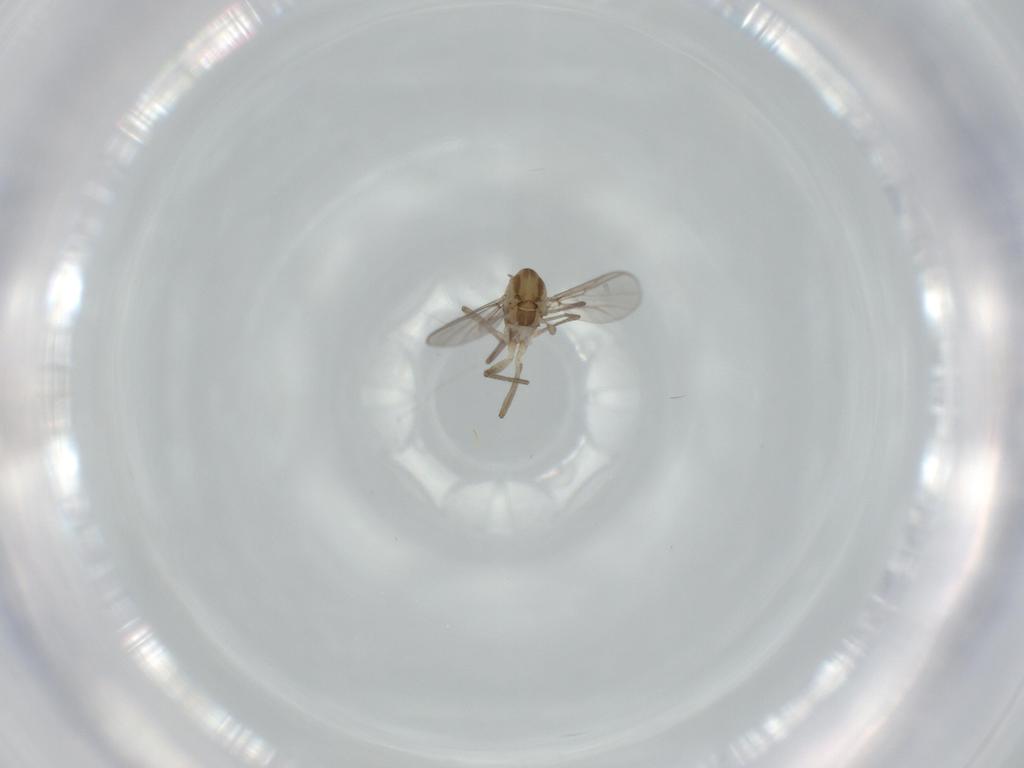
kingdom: Animalia
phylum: Arthropoda
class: Insecta
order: Diptera
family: Chironomidae
